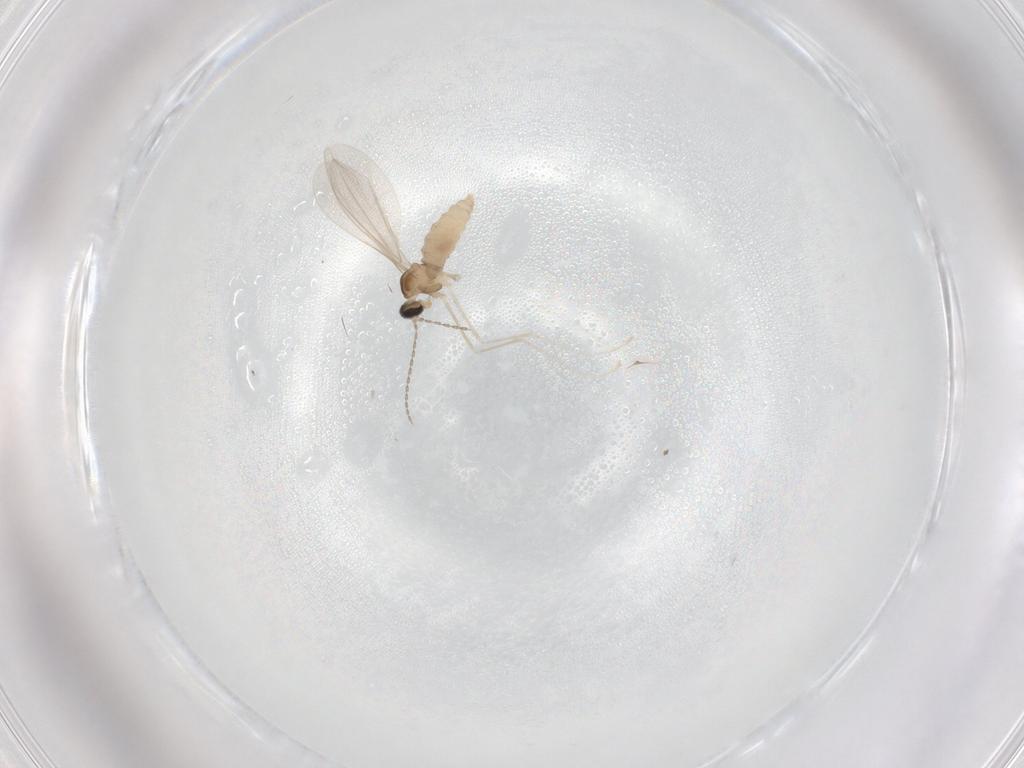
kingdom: Animalia
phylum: Arthropoda
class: Insecta
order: Diptera
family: Cecidomyiidae
